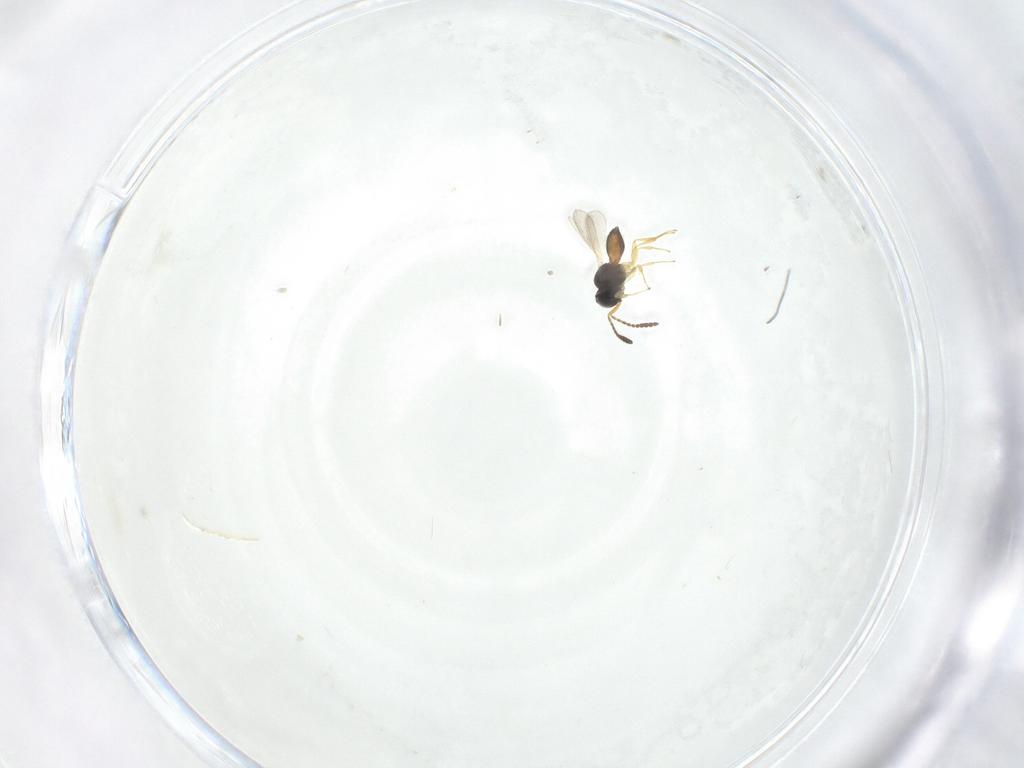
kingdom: Animalia
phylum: Arthropoda
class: Insecta
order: Hymenoptera
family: Scelionidae
